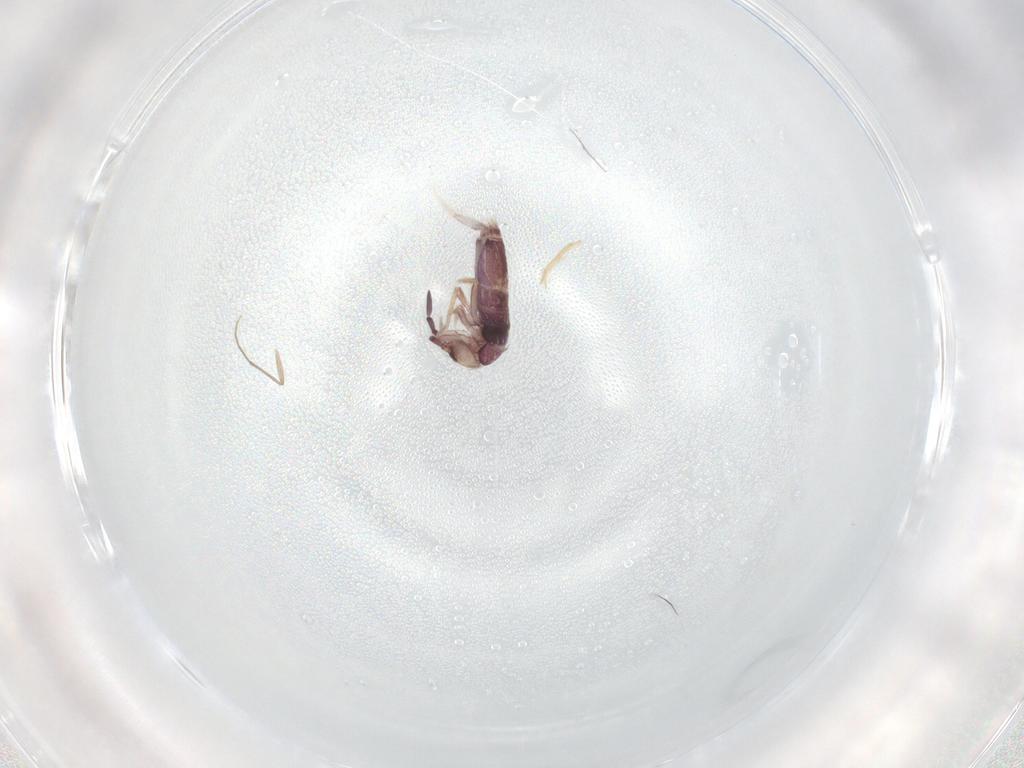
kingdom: Animalia
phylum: Arthropoda
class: Collembola
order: Entomobryomorpha
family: Entomobryidae
